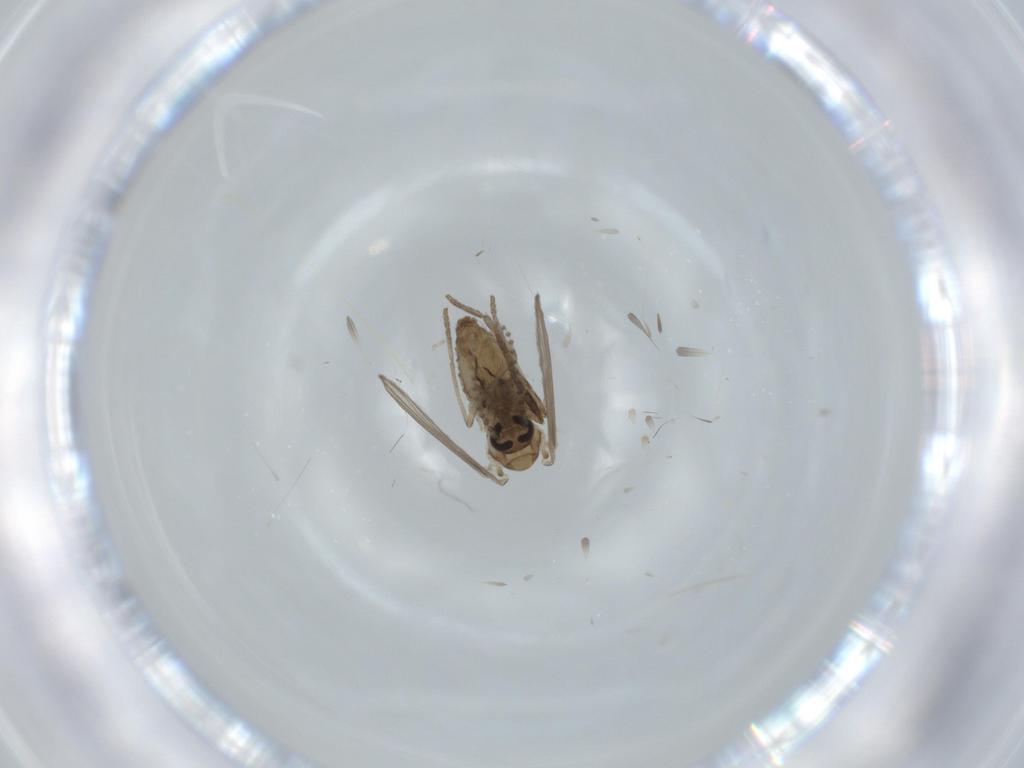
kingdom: Animalia
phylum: Arthropoda
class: Insecta
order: Diptera
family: Psychodidae
